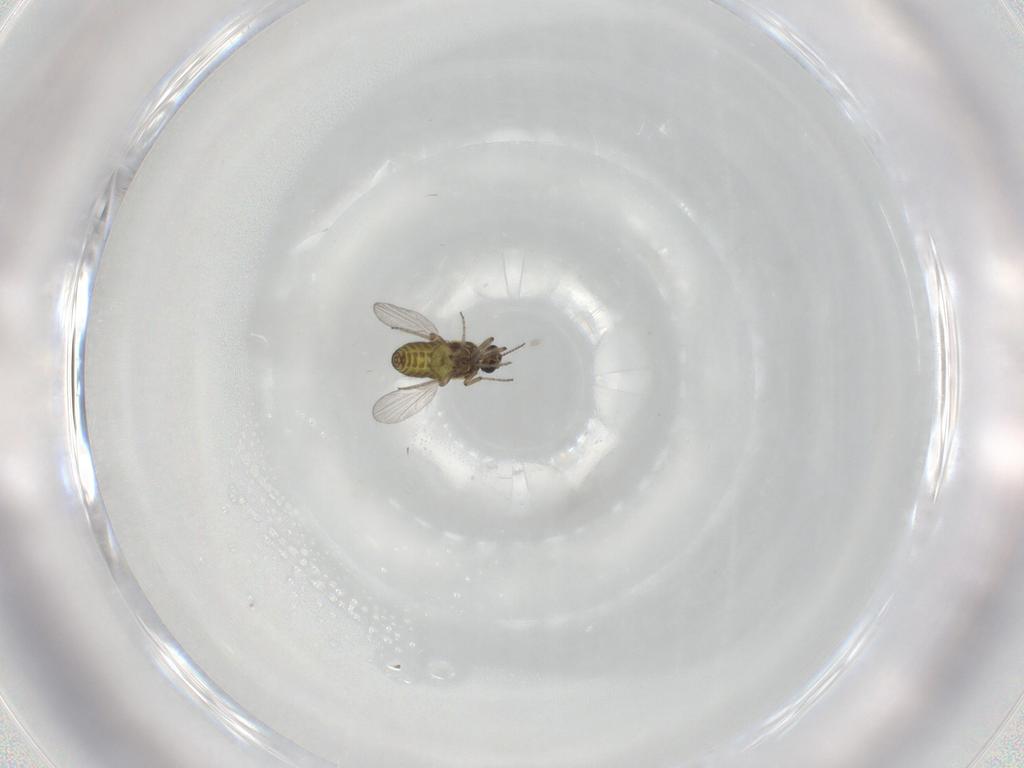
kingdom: Animalia
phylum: Arthropoda
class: Insecta
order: Diptera
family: Ceratopogonidae
